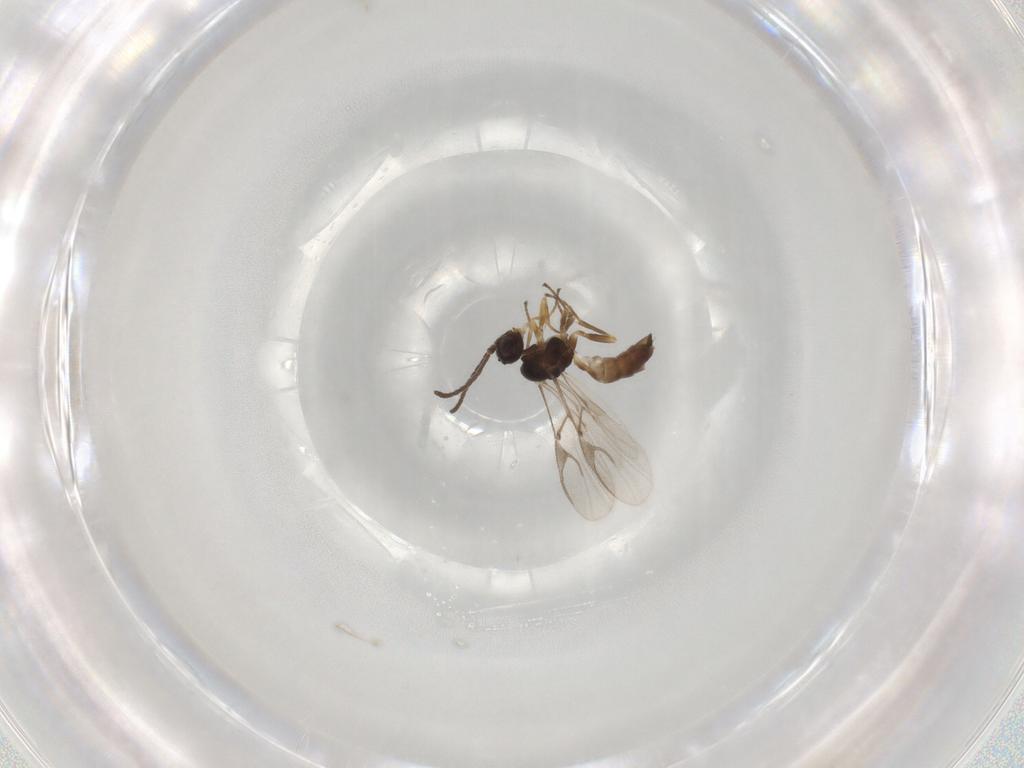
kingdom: Animalia
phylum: Arthropoda
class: Insecta
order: Hymenoptera
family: Braconidae
